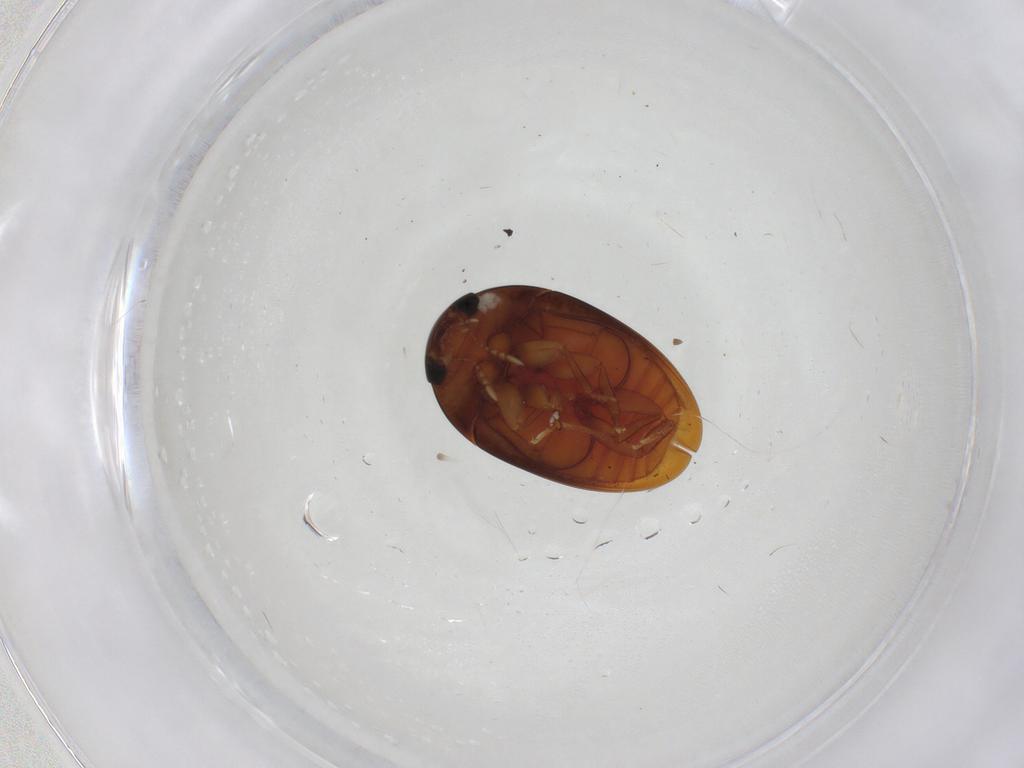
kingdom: Animalia
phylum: Arthropoda
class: Insecta
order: Coleoptera
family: Phalacridae
